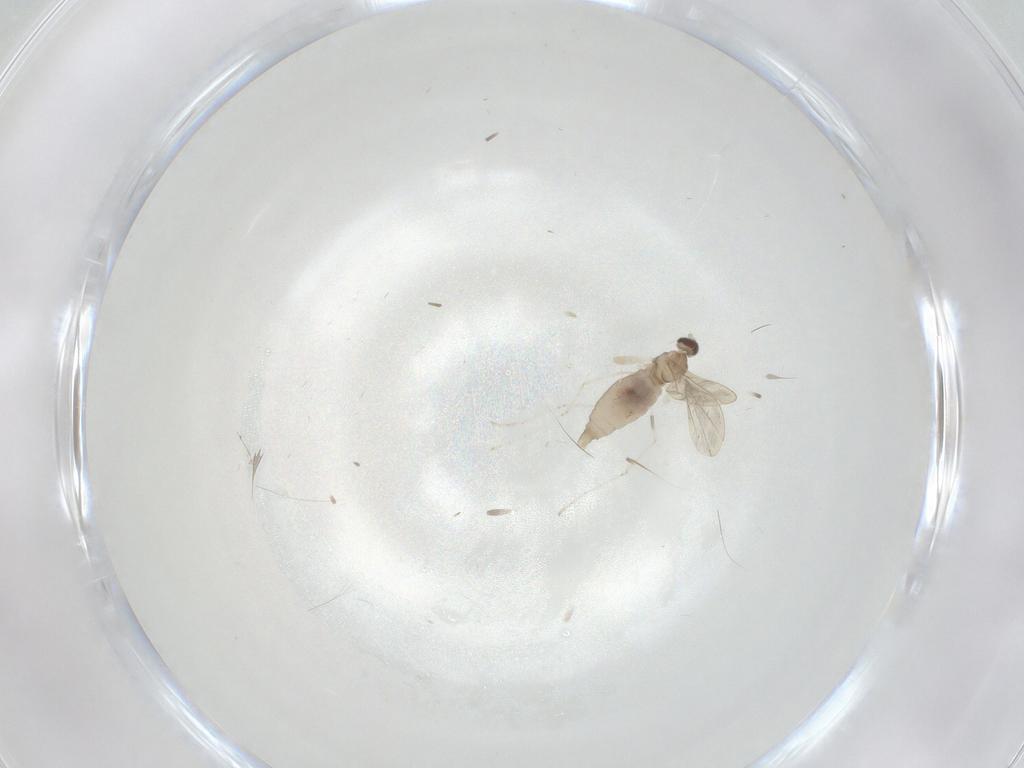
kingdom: Animalia
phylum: Arthropoda
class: Insecta
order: Diptera
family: Cecidomyiidae
